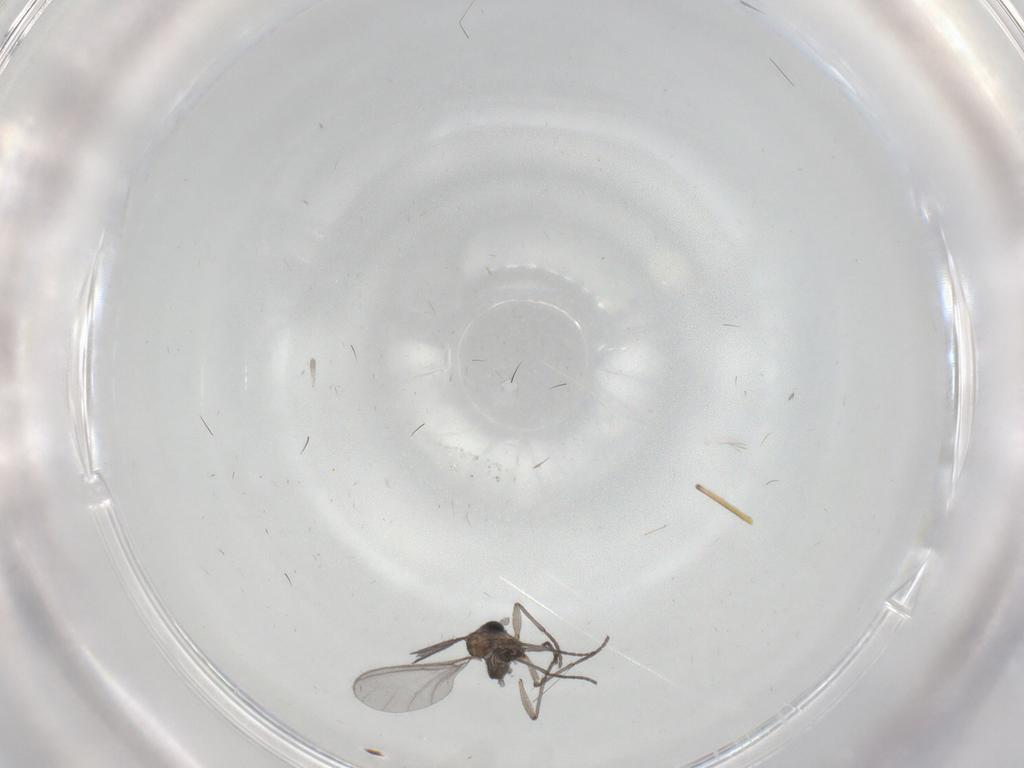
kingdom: Animalia
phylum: Arthropoda
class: Insecta
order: Diptera
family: Sciaridae
